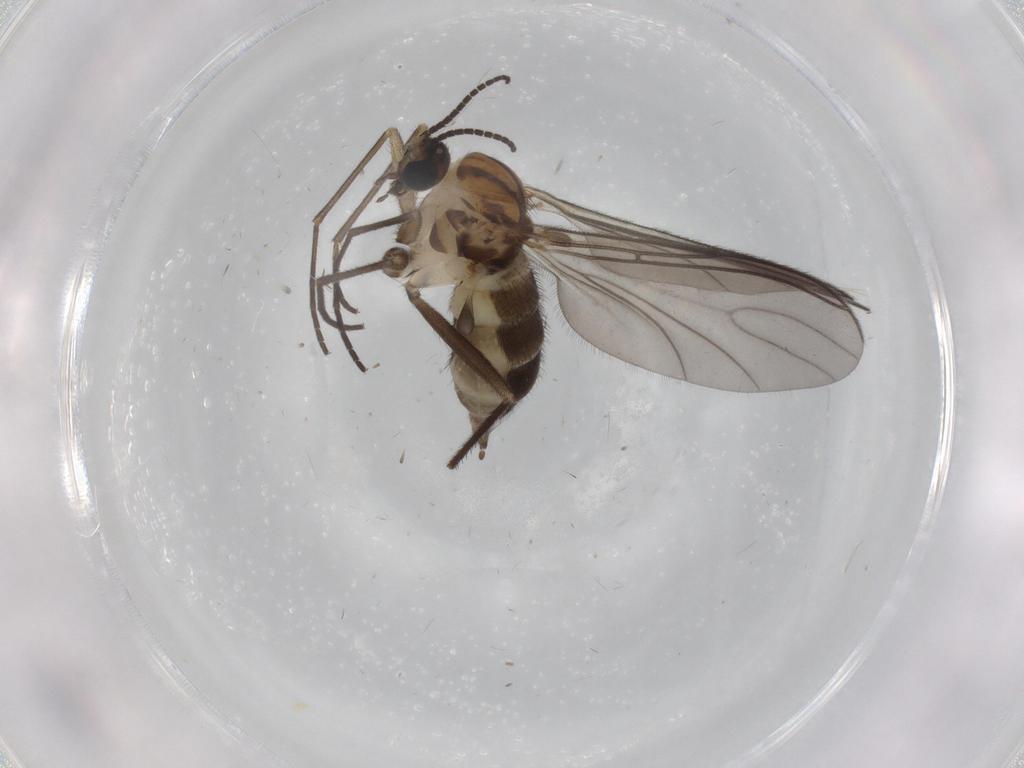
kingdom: Animalia
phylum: Arthropoda
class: Insecta
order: Diptera
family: Sciaridae
